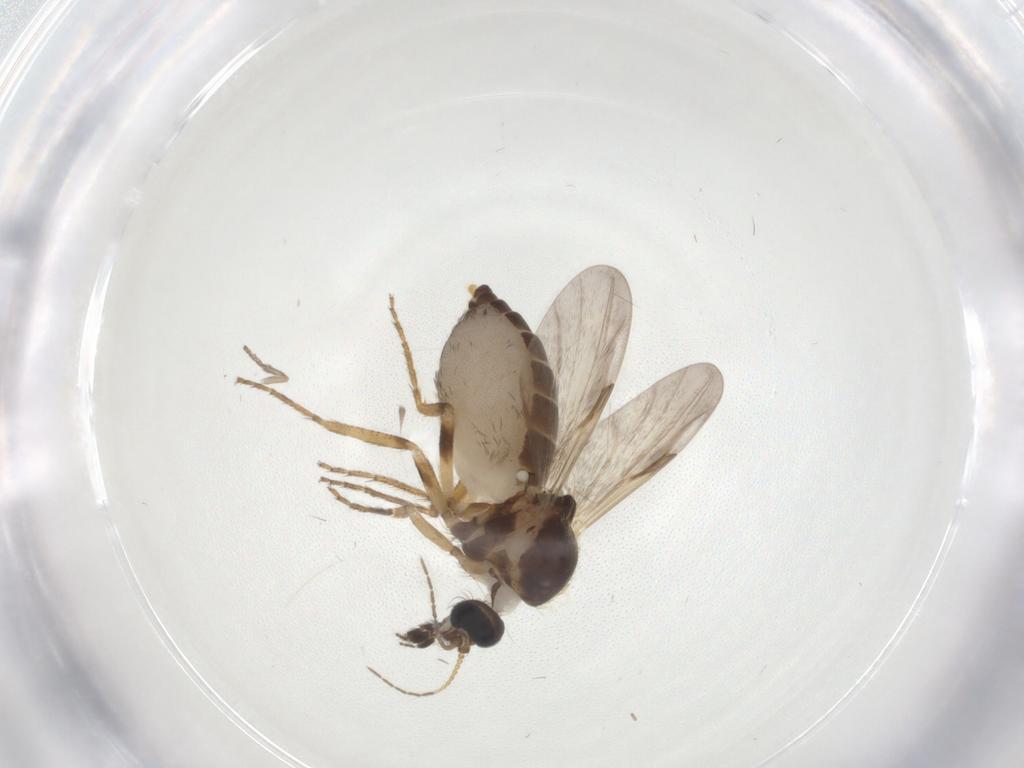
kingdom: Animalia
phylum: Arthropoda
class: Insecta
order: Diptera
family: Ceratopogonidae
